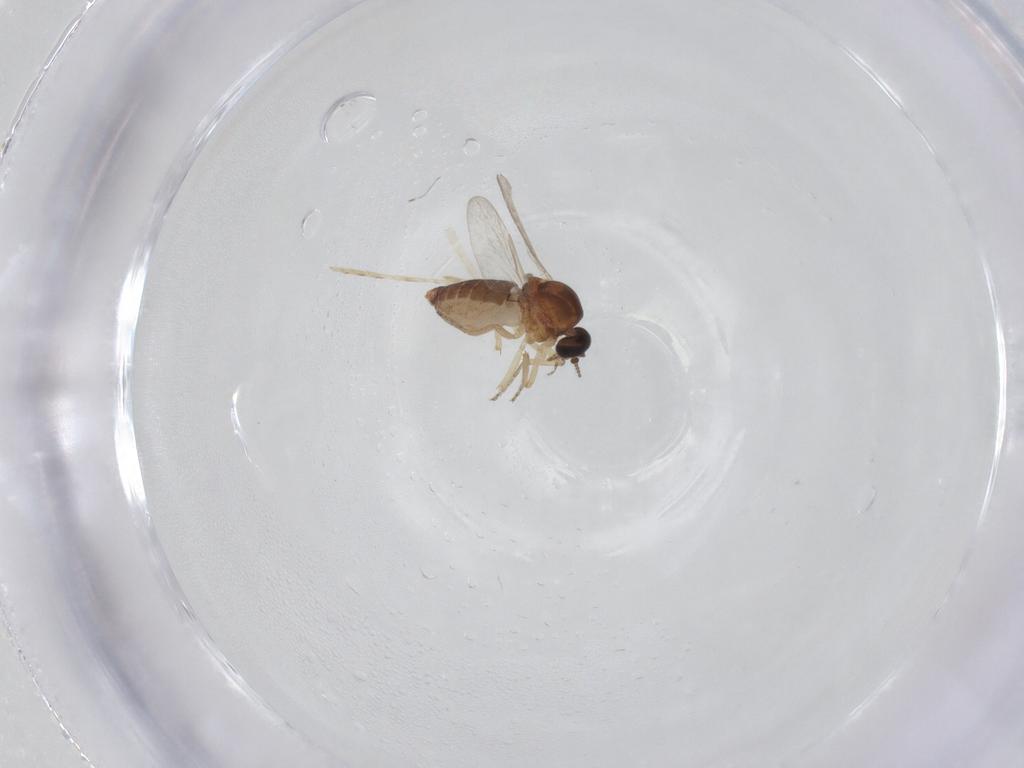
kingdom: Animalia
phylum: Arthropoda
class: Insecta
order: Diptera
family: Ceratopogonidae
